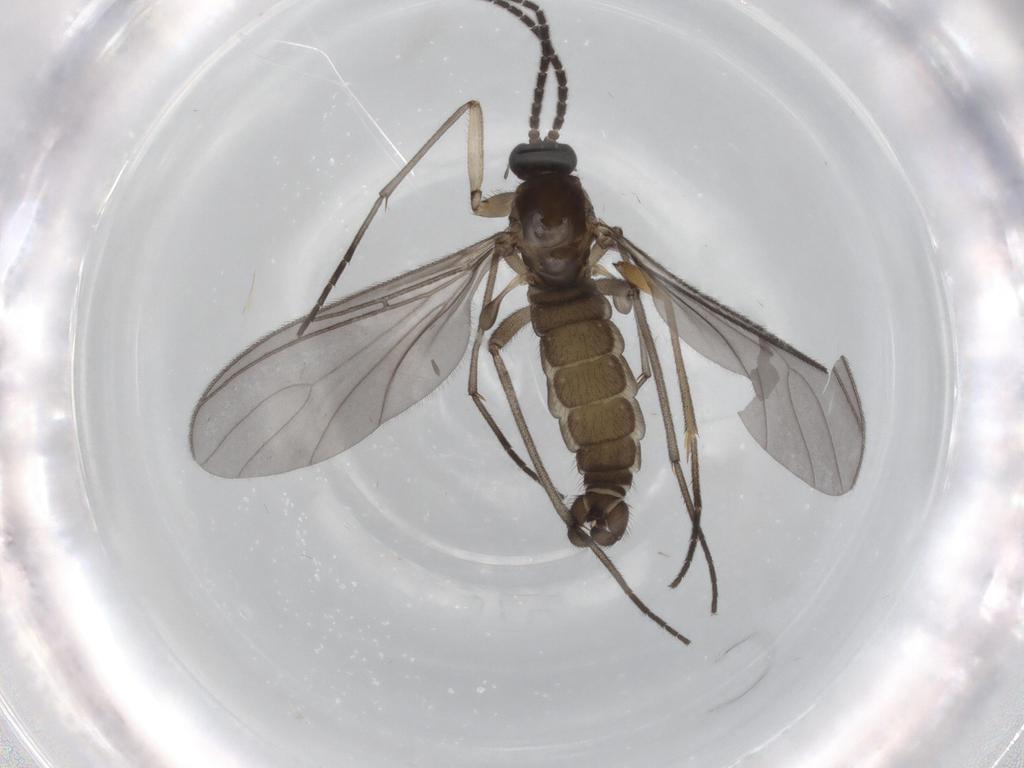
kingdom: Animalia
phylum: Arthropoda
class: Insecta
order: Diptera
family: Sciaridae
